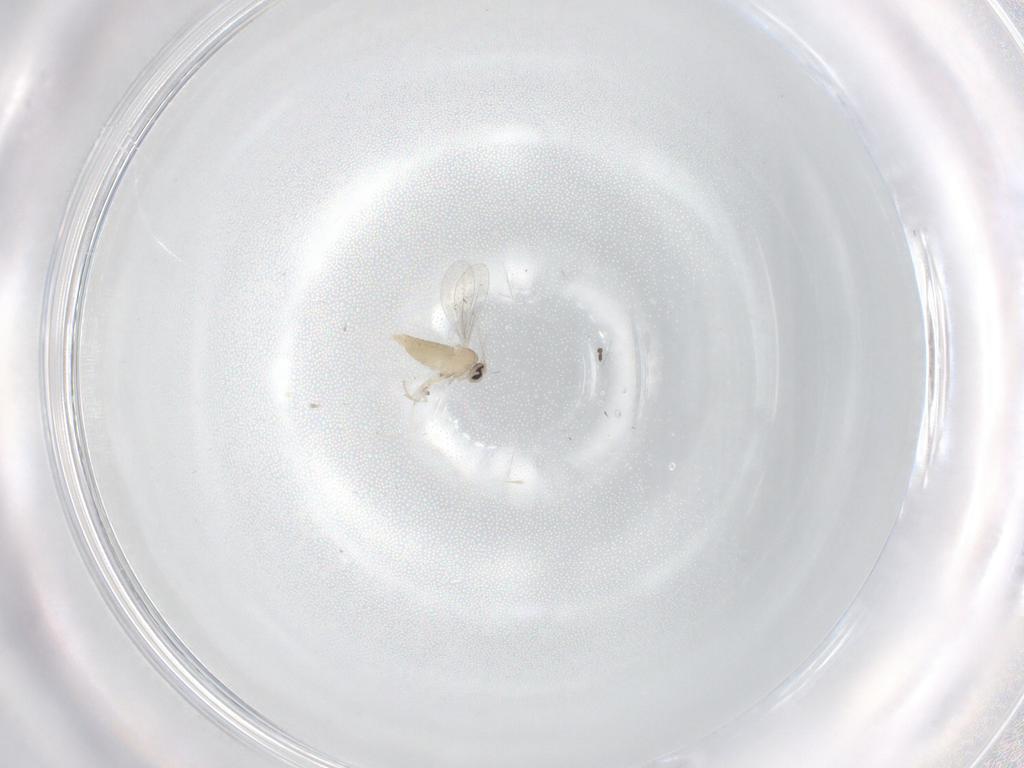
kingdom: Animalia
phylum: Arthropoda
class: Insecta
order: Diptera
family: Cecidomyiidae
